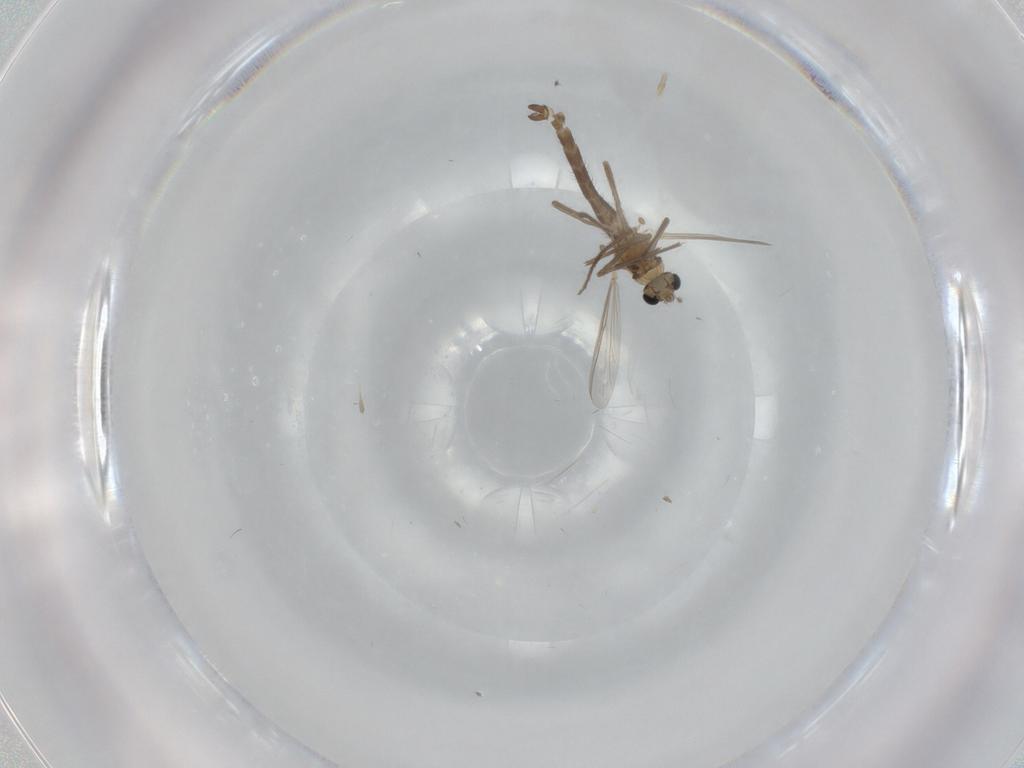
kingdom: Animalia
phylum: Arthropoda
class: Insecta
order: Diptera
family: Chironomidae
